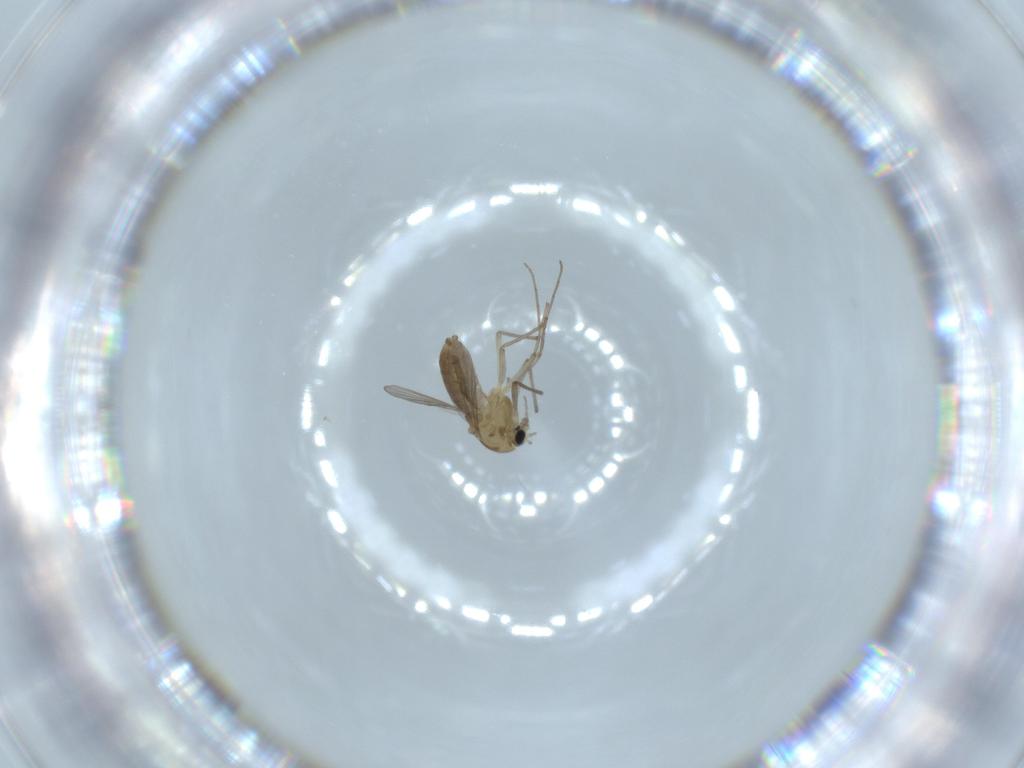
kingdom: Animalia
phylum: Arthropoda
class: Insecta
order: Diptera
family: Chironomidae
